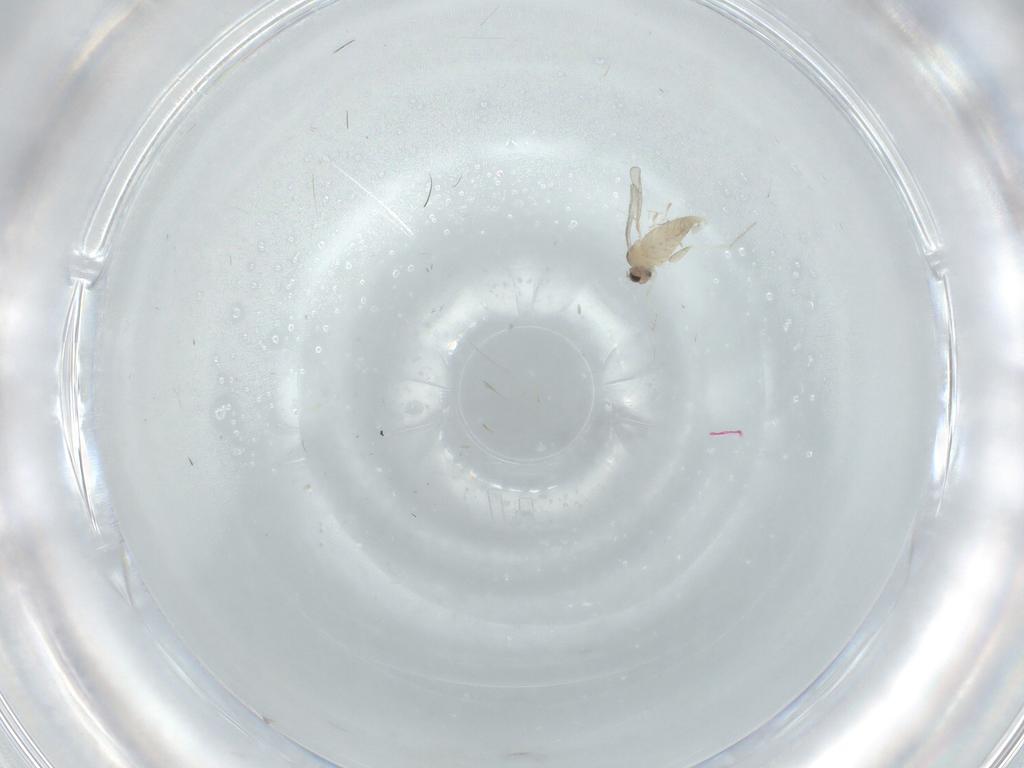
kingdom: Animalia
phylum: Arthropoda
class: Insecta
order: Diptera
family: Cecidomyiidae
